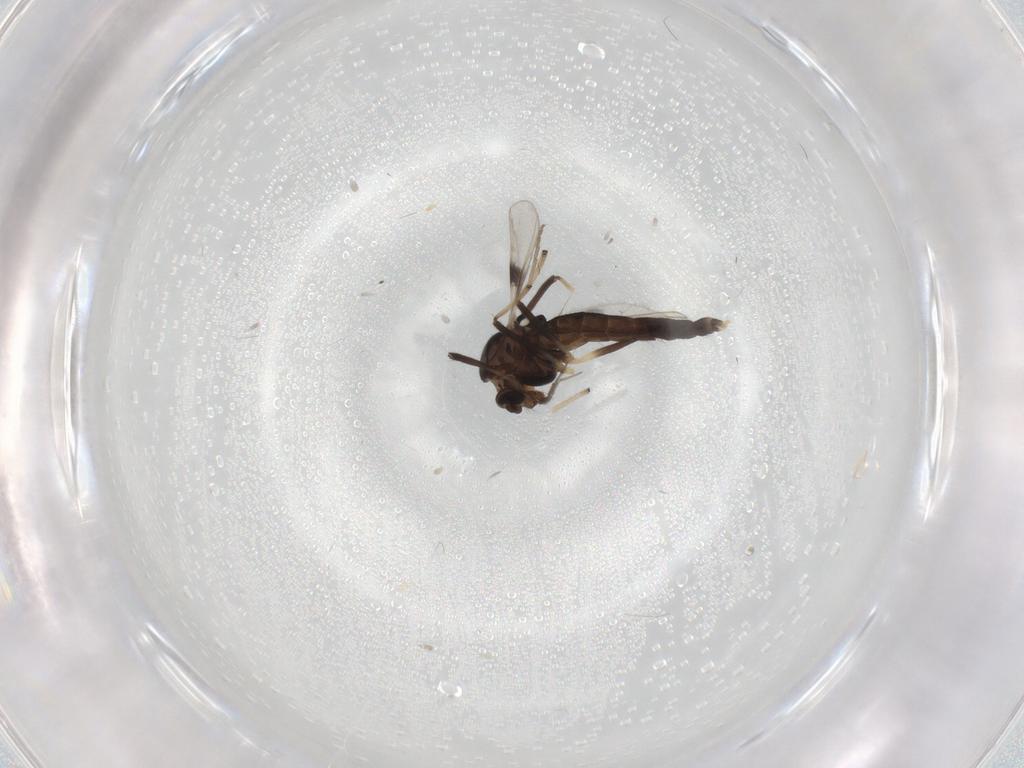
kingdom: Animalia
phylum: Arthropoda
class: Insecta
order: Diptera
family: Chironomidae
